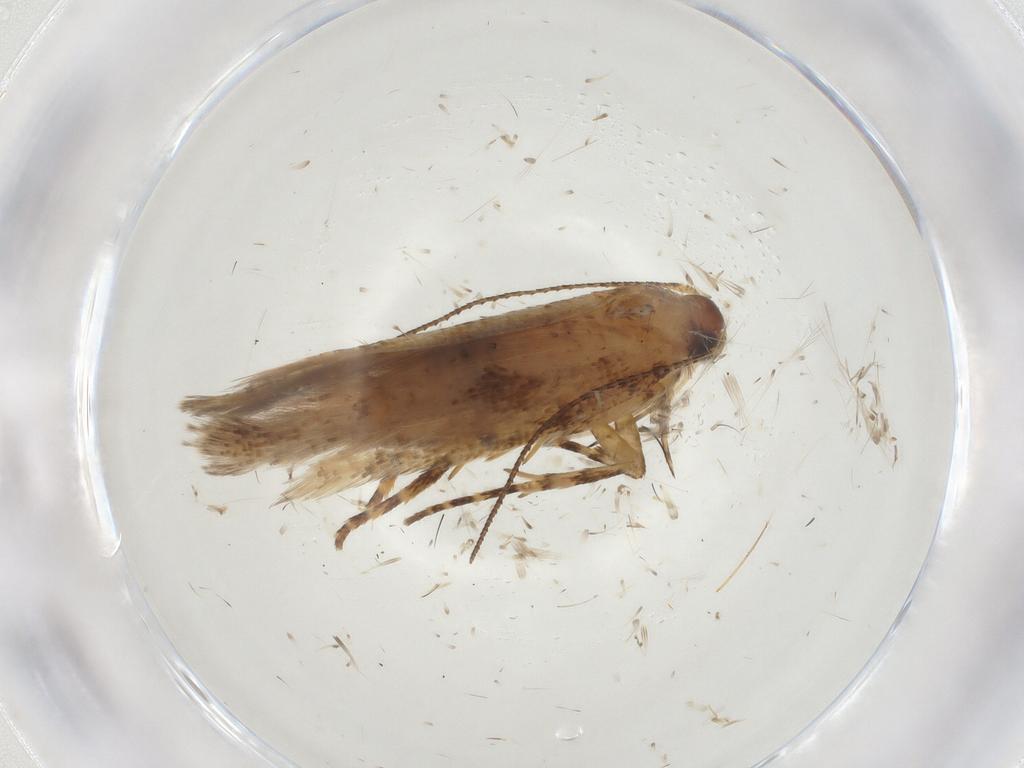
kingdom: Animalia
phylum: Arthropoda
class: Insecta
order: Lepidoptera
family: Gelechiidae
